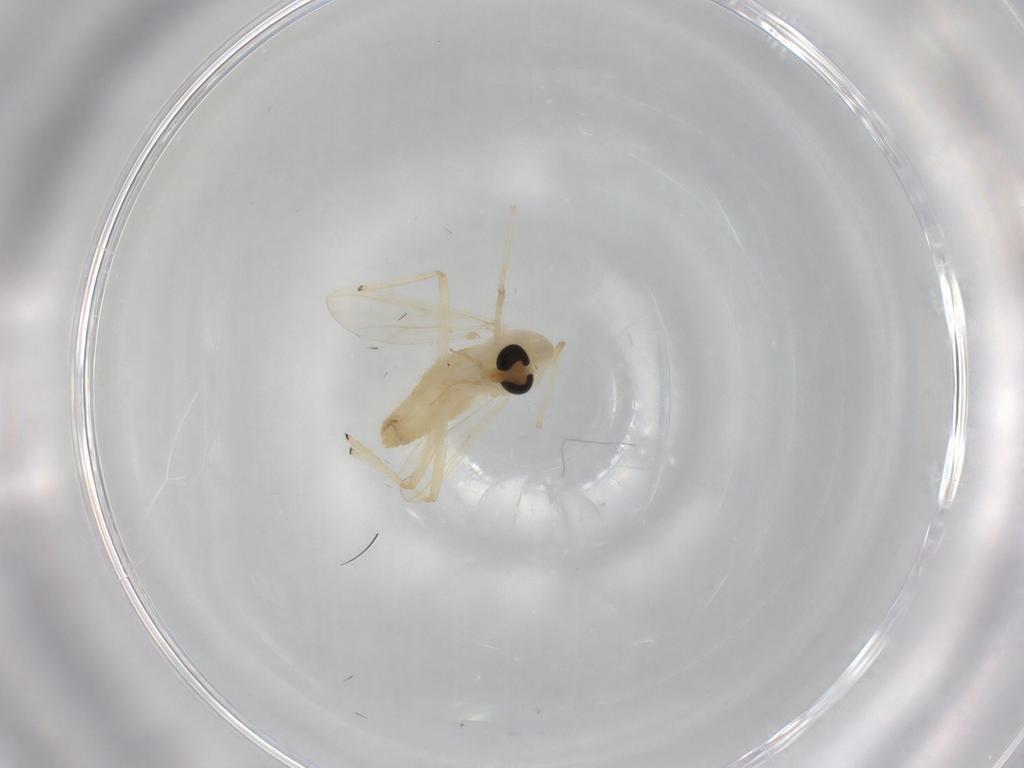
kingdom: Animalia
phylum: Arthropoda
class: Insecta
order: Diptera
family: Chironomidae
